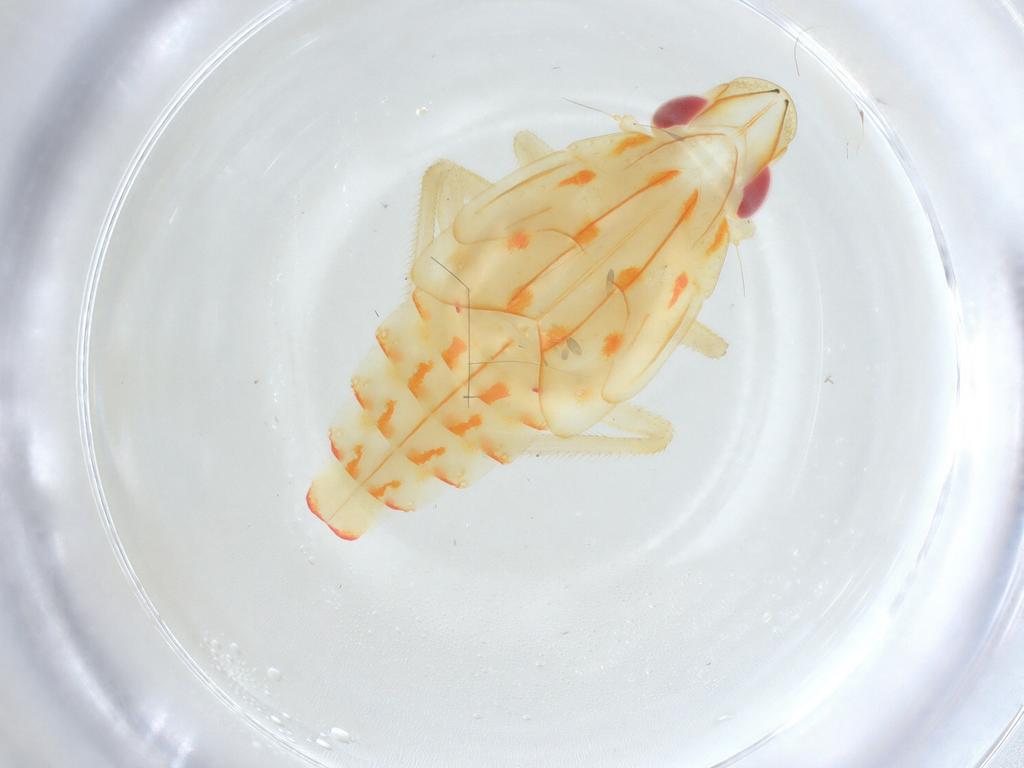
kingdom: Animalia
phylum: Arthropoda
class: Insecta
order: Hemiptera
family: Tropiduchidae
